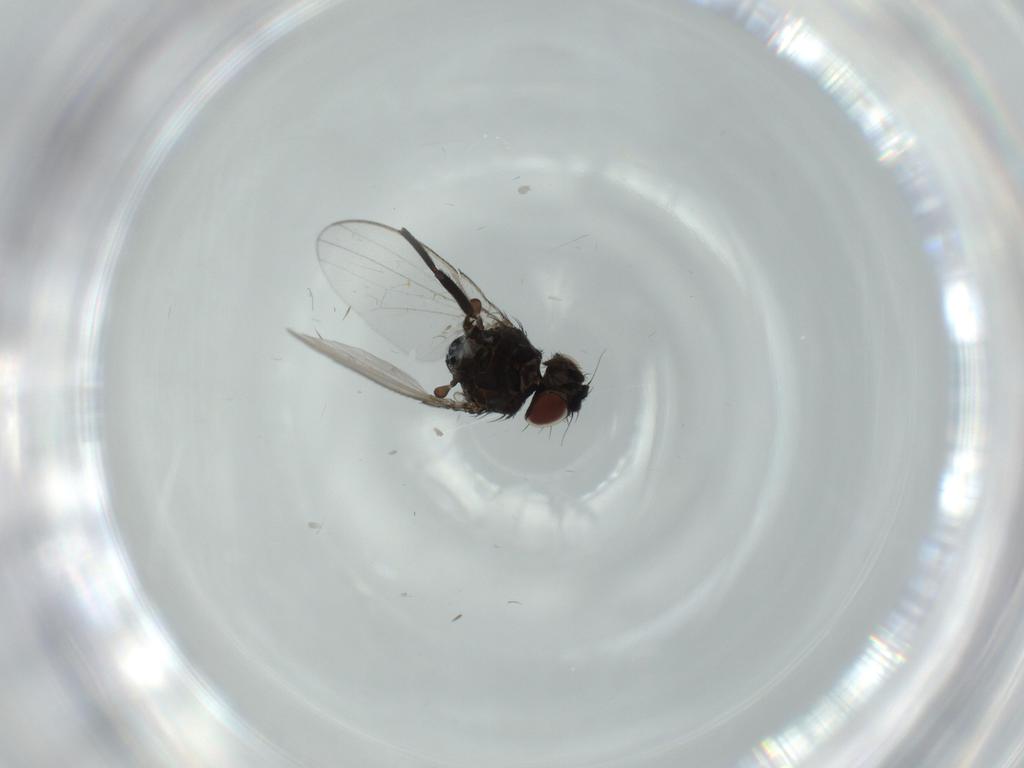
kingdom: Animalia
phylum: Arthropoda
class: Insecta
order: Diptera
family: Milichiidae
